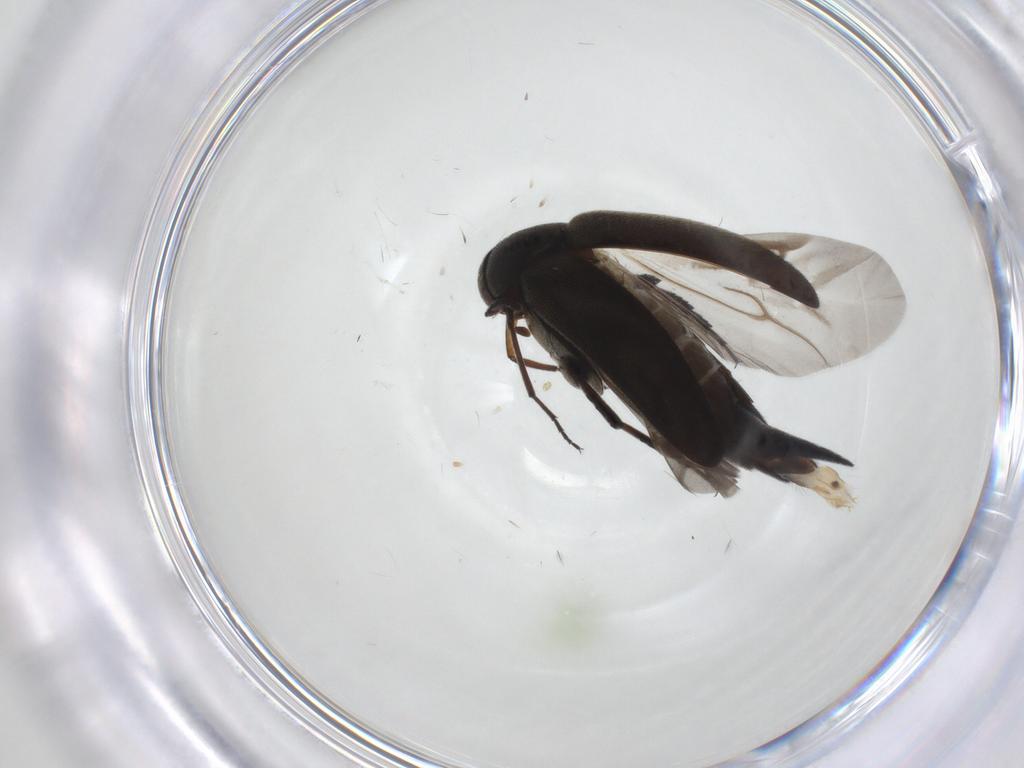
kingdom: Animalia
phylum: Arthropoda
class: Insecta
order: Coleoptera
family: Mordellidae
